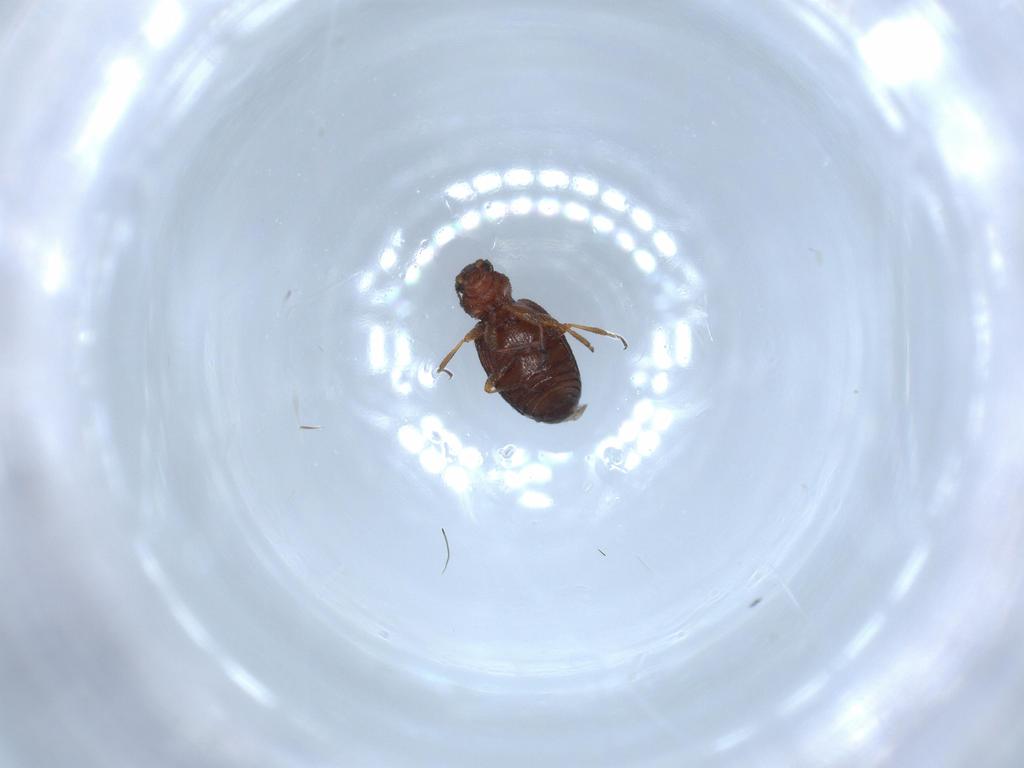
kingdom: Animalia
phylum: Arthropoda
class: Insecta
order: Coleoptera
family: Latridiidae
